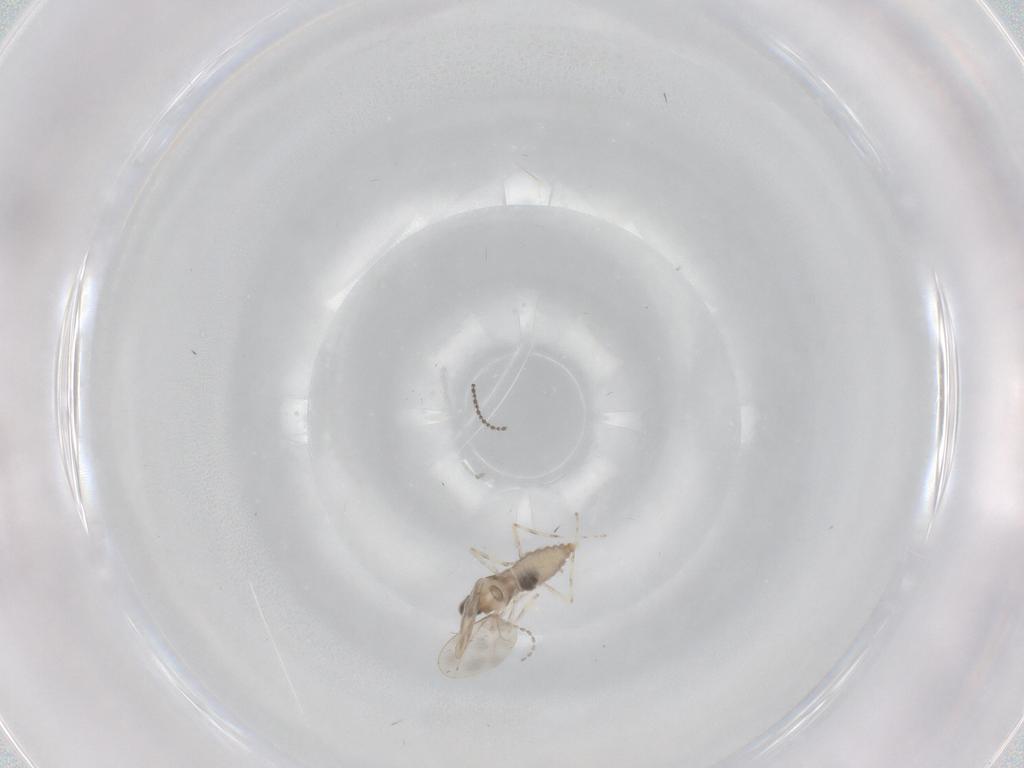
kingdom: Animalia
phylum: Arthropoda
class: Insecta
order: Diptera
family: Cecidomyiidae
